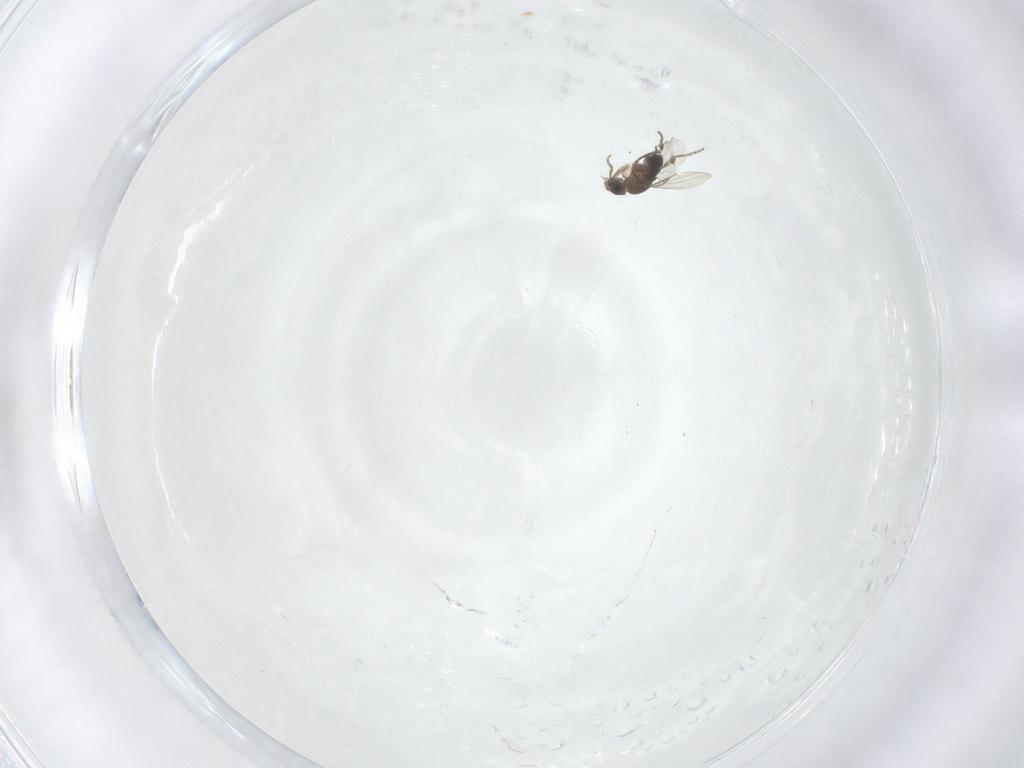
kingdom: Animalia
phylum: Arthropoda
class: Insecta
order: Diptera
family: Phoridae
